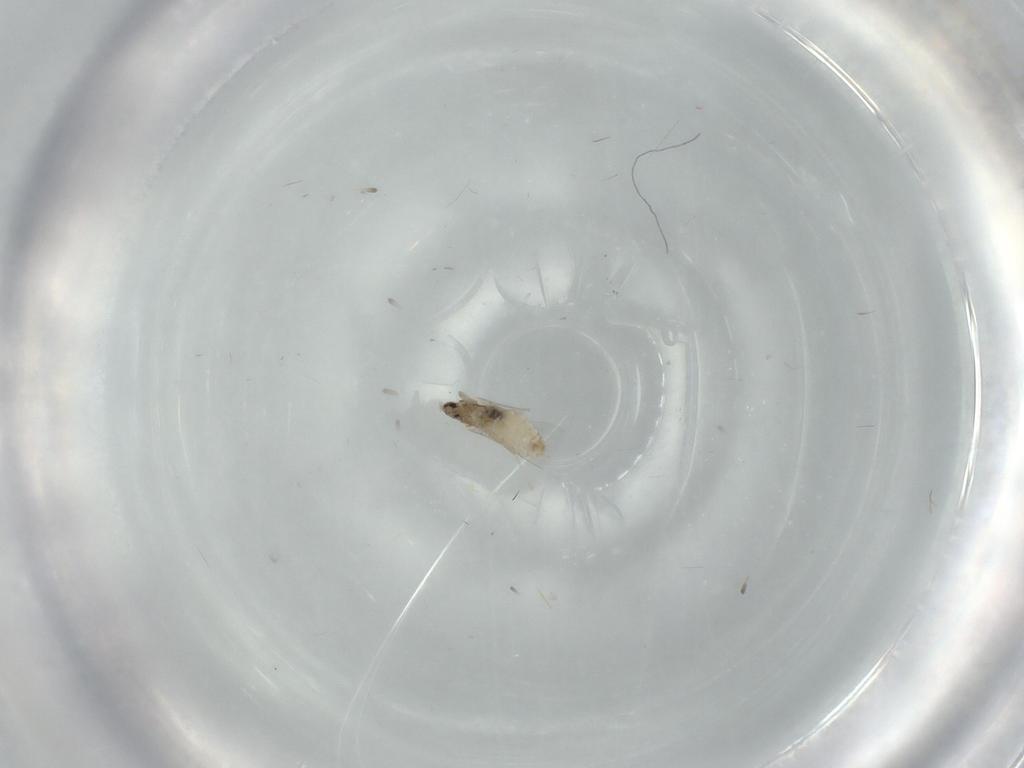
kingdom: Animalia
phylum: Arthropoda
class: Insecta
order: Diptera
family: Cecidomyiidae
